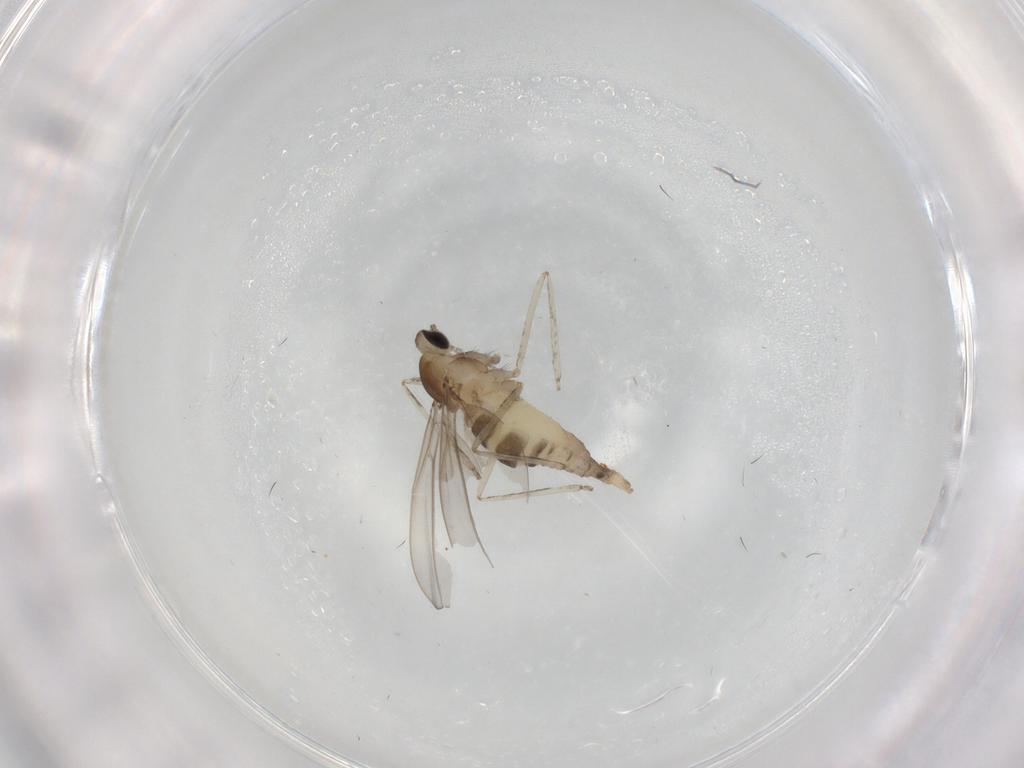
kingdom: Animalia
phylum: Arthropoda
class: Insecta
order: Diptera
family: Cecidomyiidae
